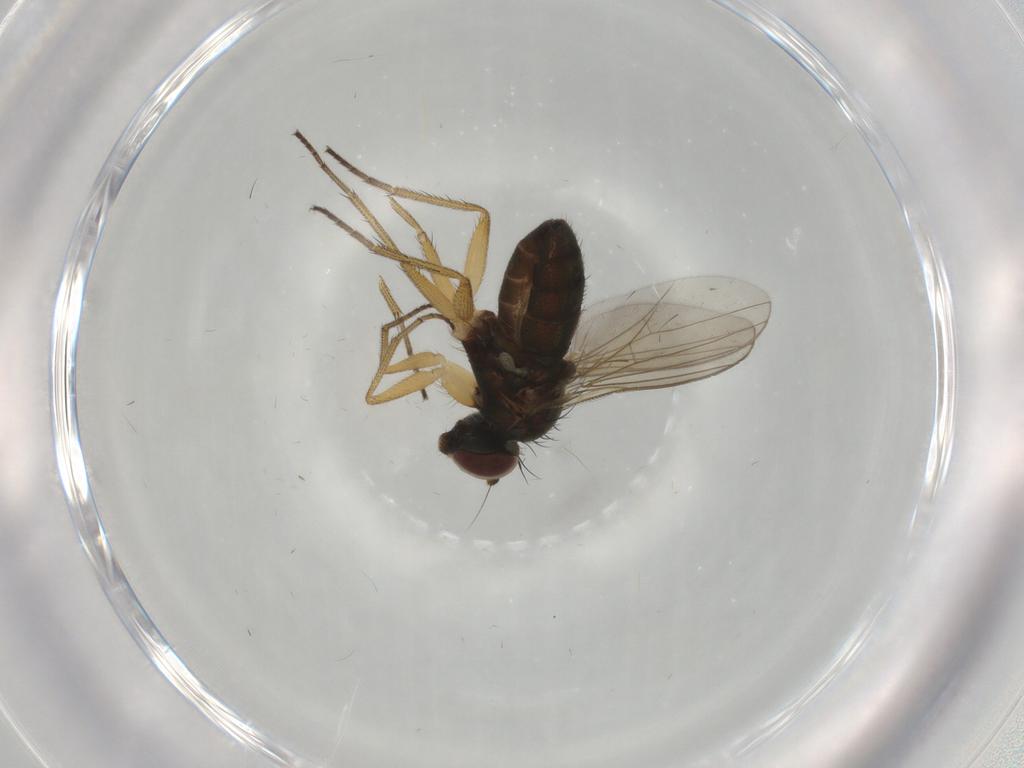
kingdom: Animalia
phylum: Arthropoda
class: Insecta
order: Diptera
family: Dolichopodidae
